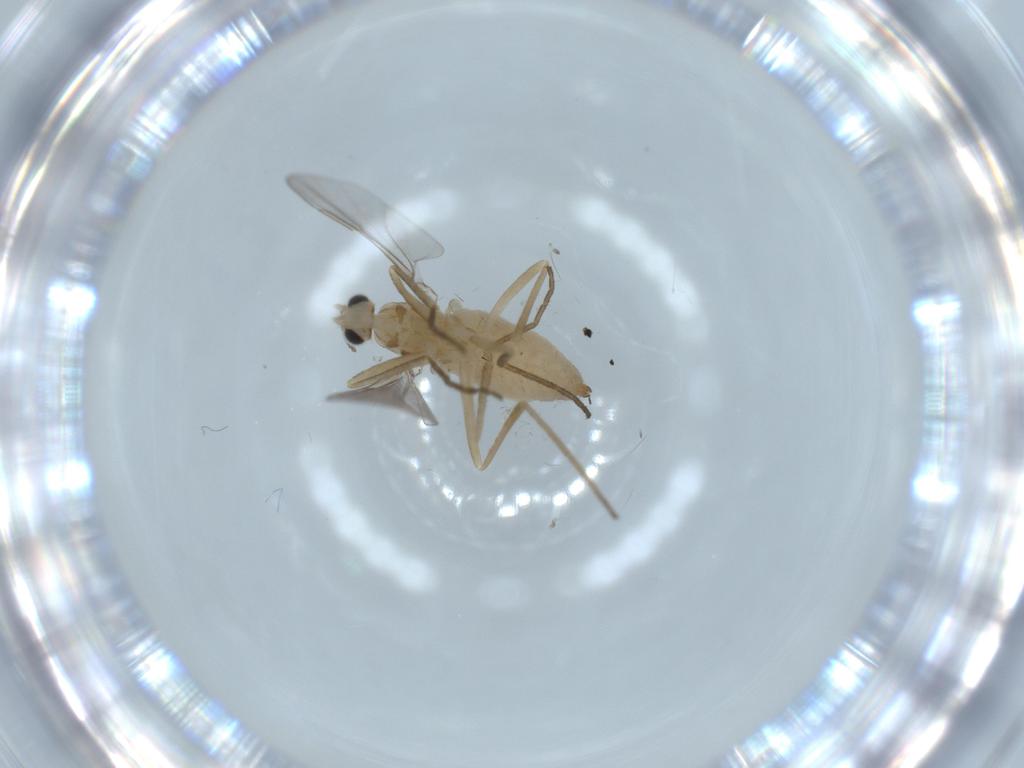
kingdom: Animalia
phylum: Arthropoda
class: Insecta
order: Diptera
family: Cecidomyiidae
